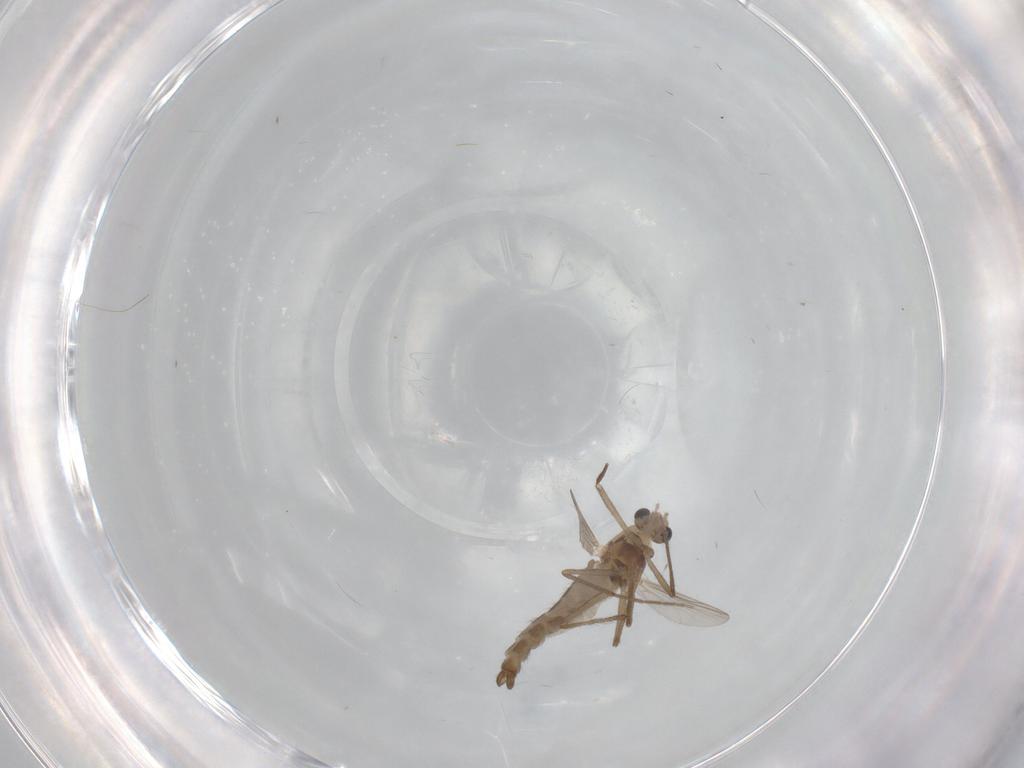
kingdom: Animalia
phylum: Arthropoda
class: Insecta
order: Diptera
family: Chironomidae
